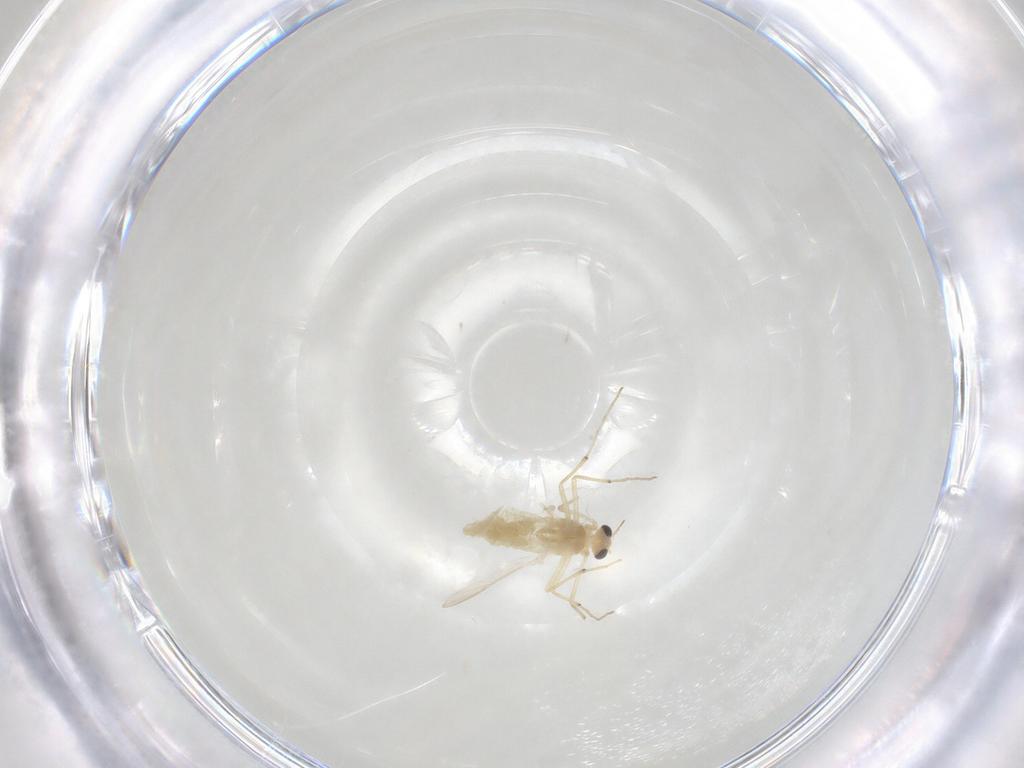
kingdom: Animalia
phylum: Arthropoda
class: Insecta
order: Diptera
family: Chironomidae
